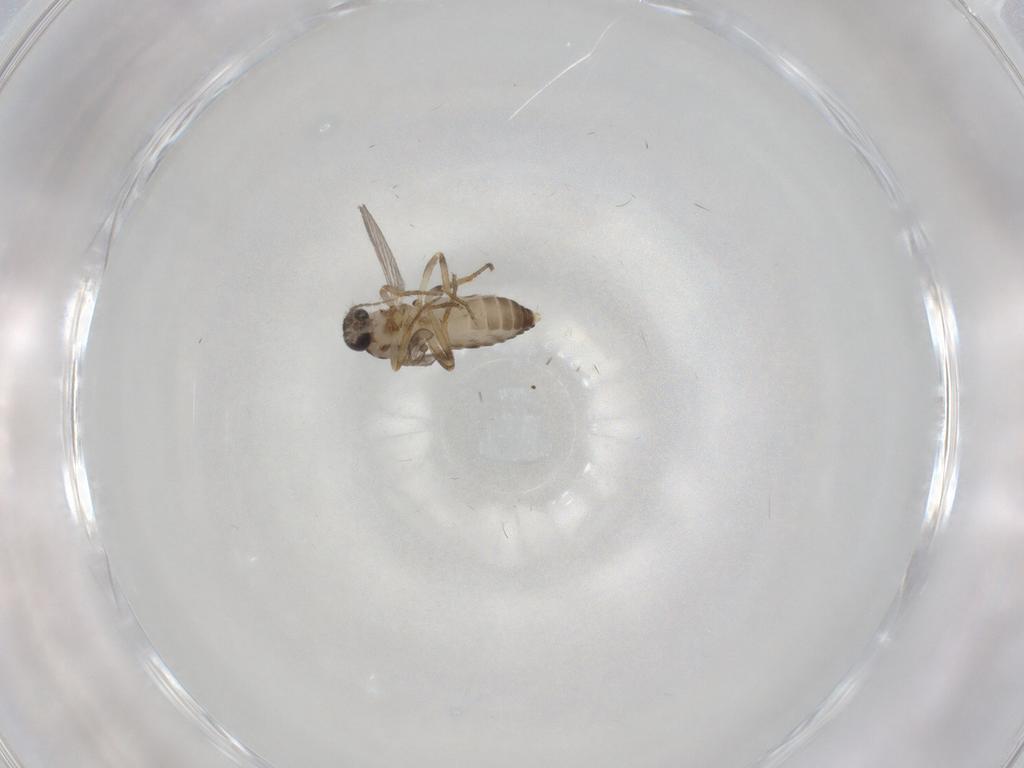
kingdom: Animalia
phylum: Arthropoda
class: Insecta
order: Diptera
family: Ceratopogonidae
